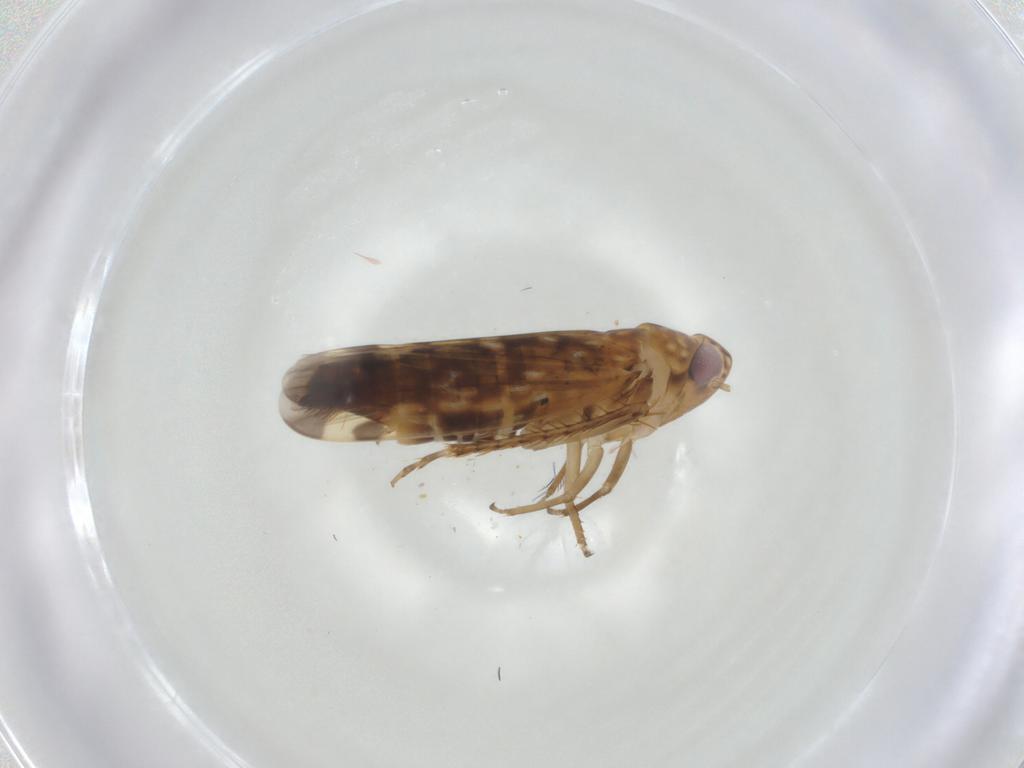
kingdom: Animalia
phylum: Arthropoda
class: Insecta
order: Hemiptera
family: Cicadellidae
